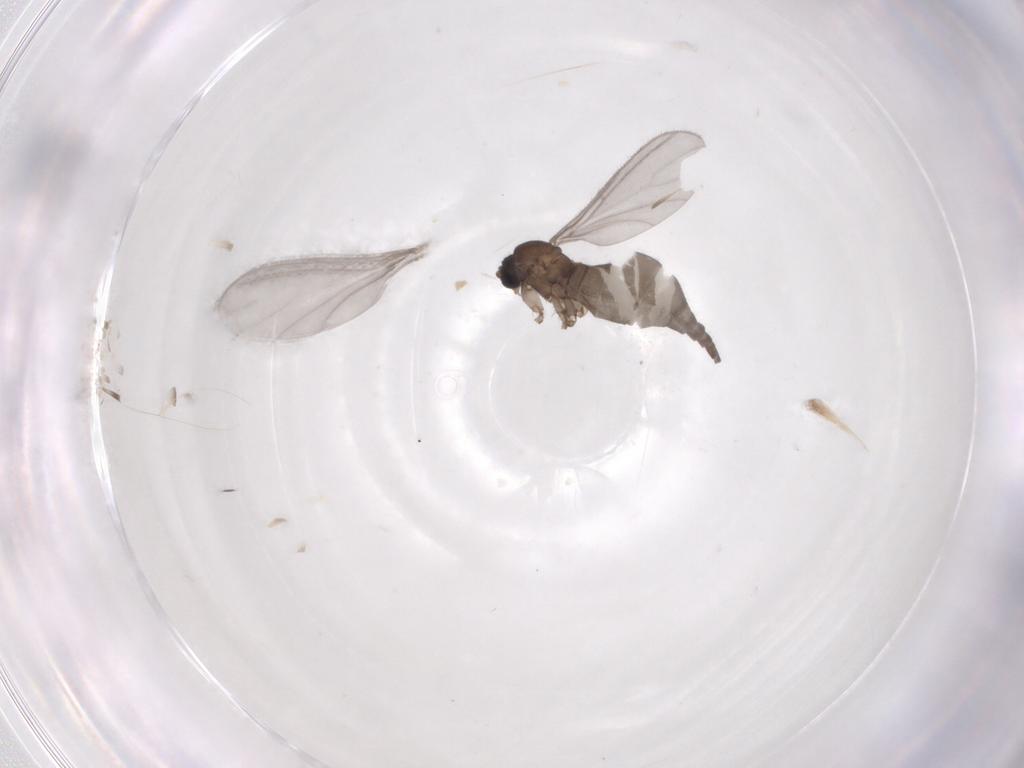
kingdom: Animalia
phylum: Arthropoda
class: Insecta
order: Diptera
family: Sciaridae
